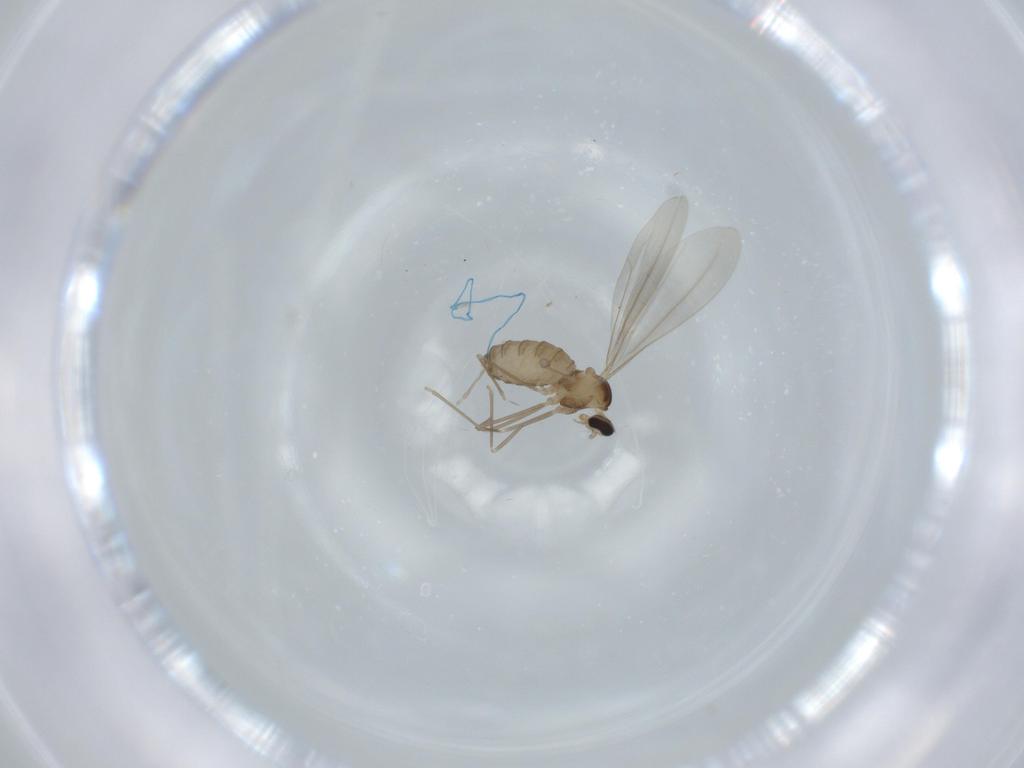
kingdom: Animalia
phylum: Arthropoda
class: Insecta
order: Diptera
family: Cecidomyiidae
